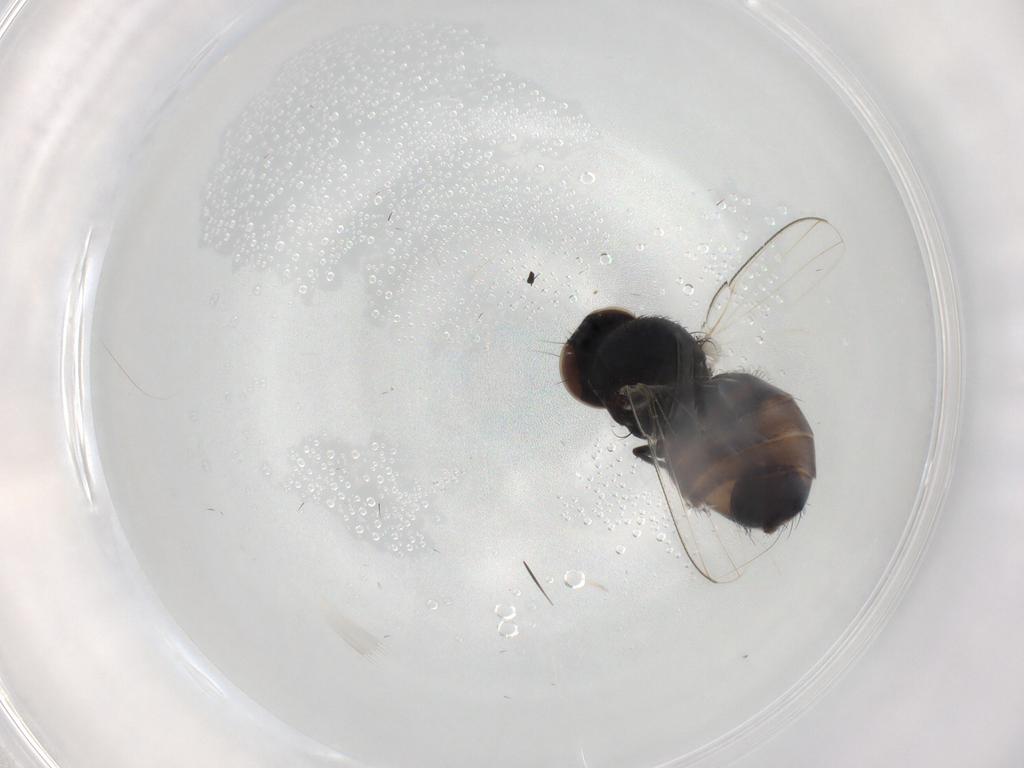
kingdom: Animalia
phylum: Arthropoda
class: Insecta
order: Diptera
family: Milichiidae
